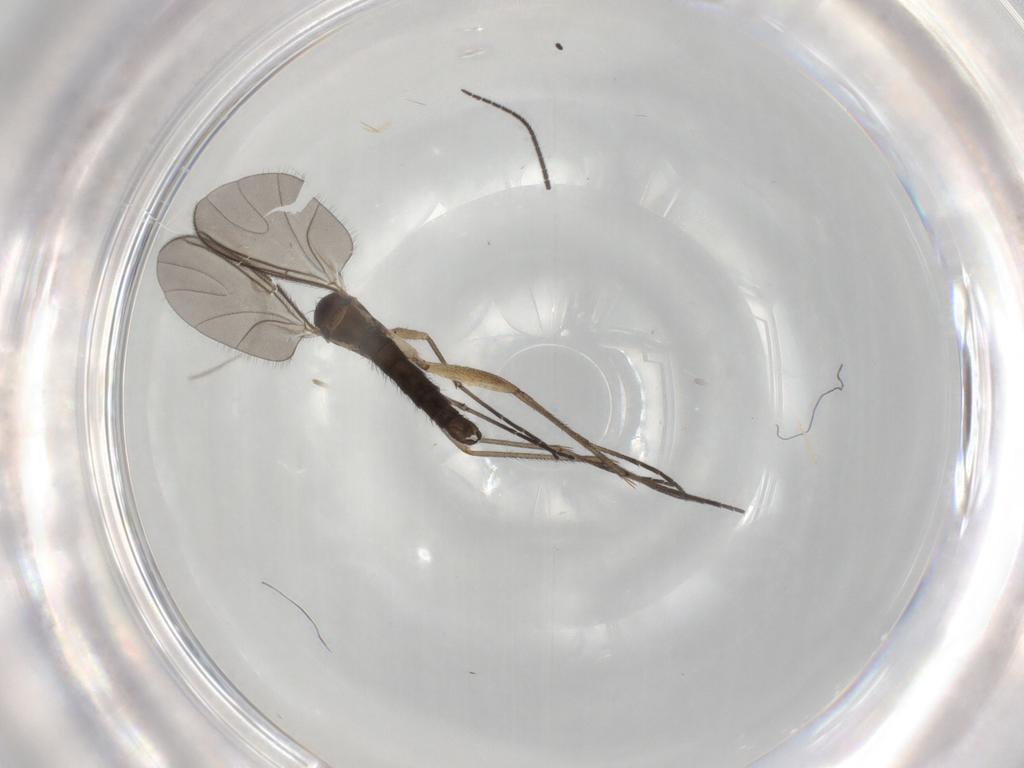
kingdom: Animalia
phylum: Arthropoda
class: Insecta
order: Diptera
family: Sciaridae
